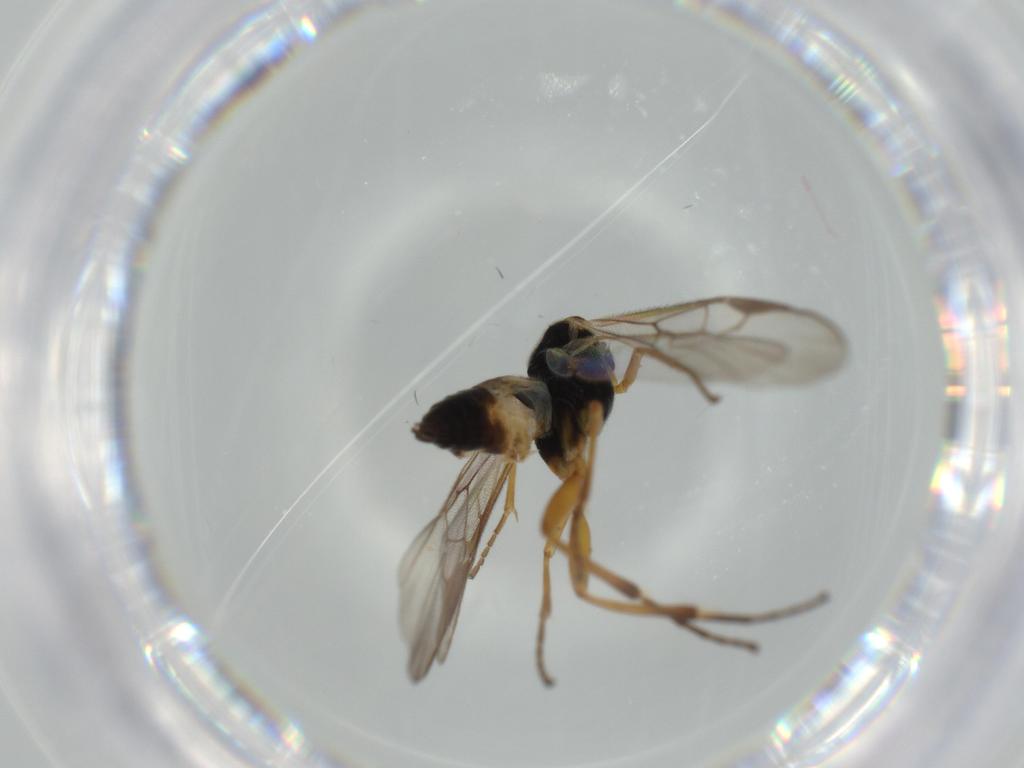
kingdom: Animalia
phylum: Arthropoda
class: Insecta
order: Hymenoptera
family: Braconidae
